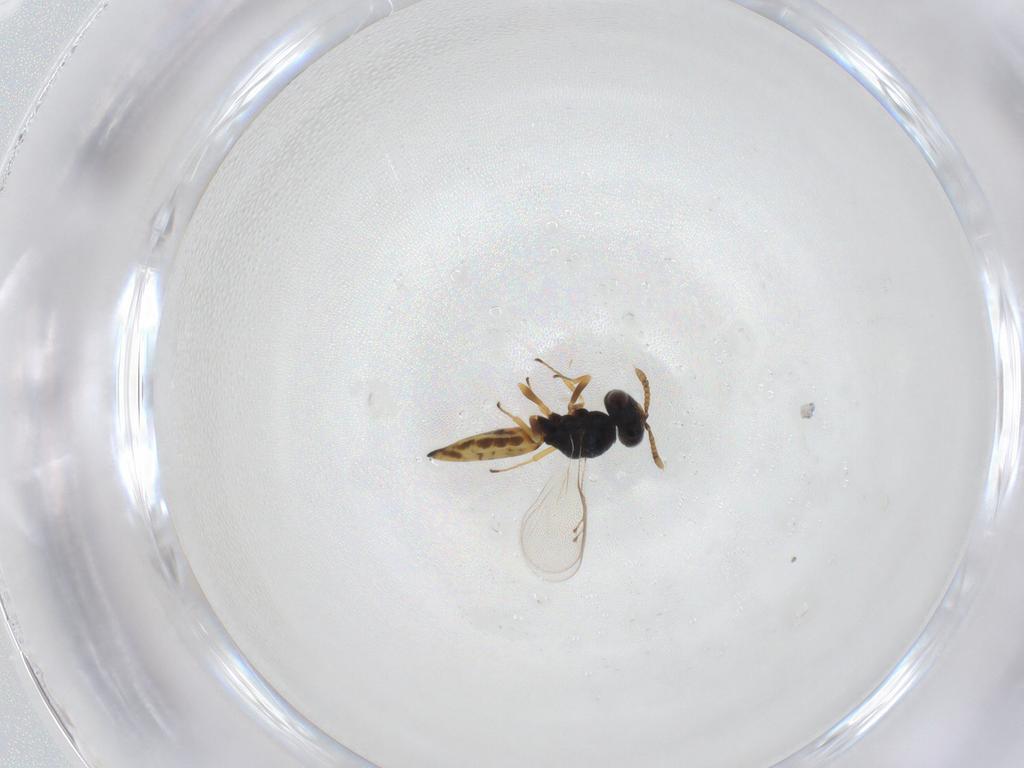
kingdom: Animalia
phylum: Arthropoda
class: Insecta
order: Hymenoptera
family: Pteromalidae
